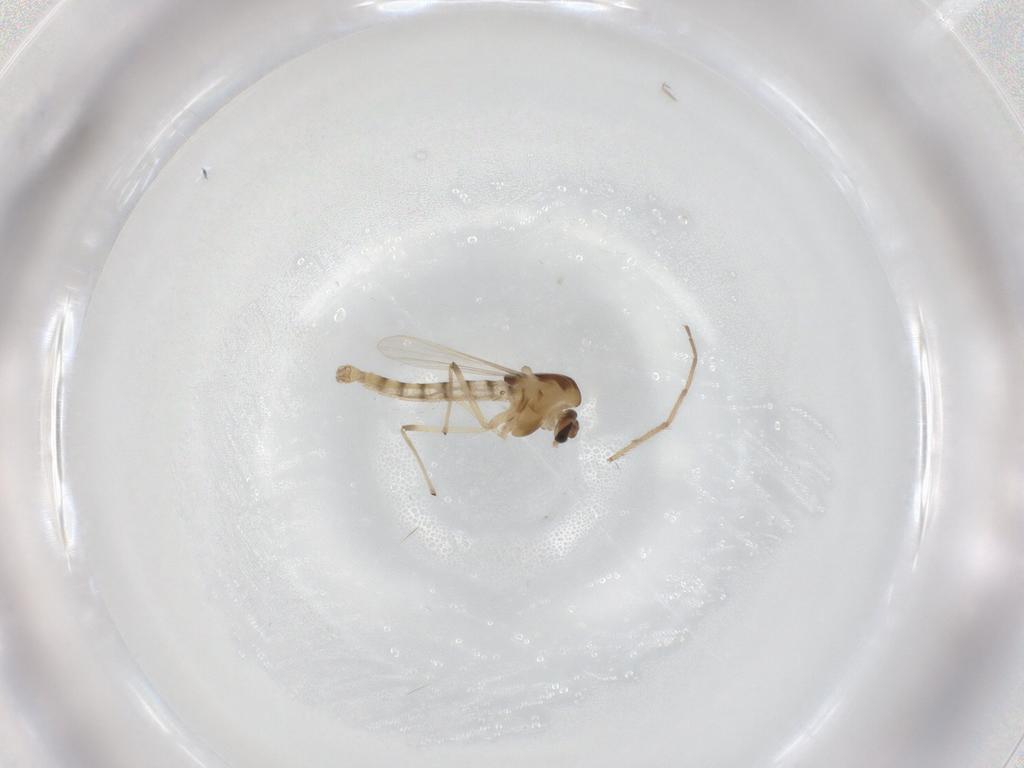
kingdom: Animalia
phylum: Arthropoda
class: Insecta
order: Diptera
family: Chironomidae
